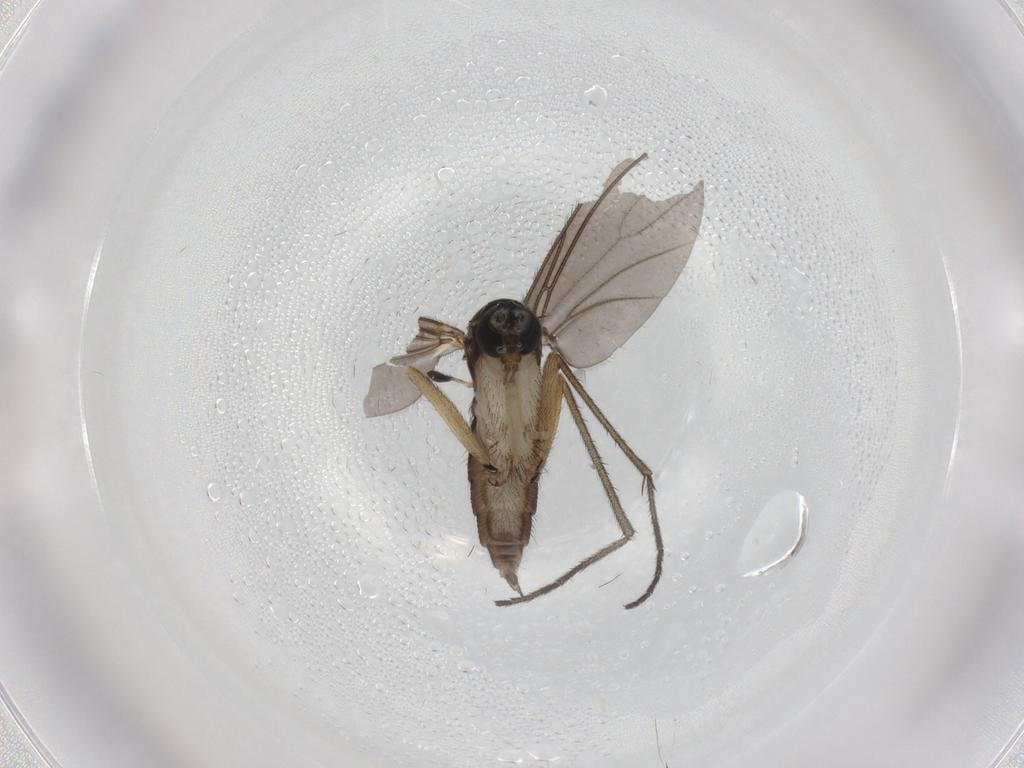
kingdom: Animalia
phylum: Arthropoda
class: Insecta
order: Diptera
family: Sciaridae
